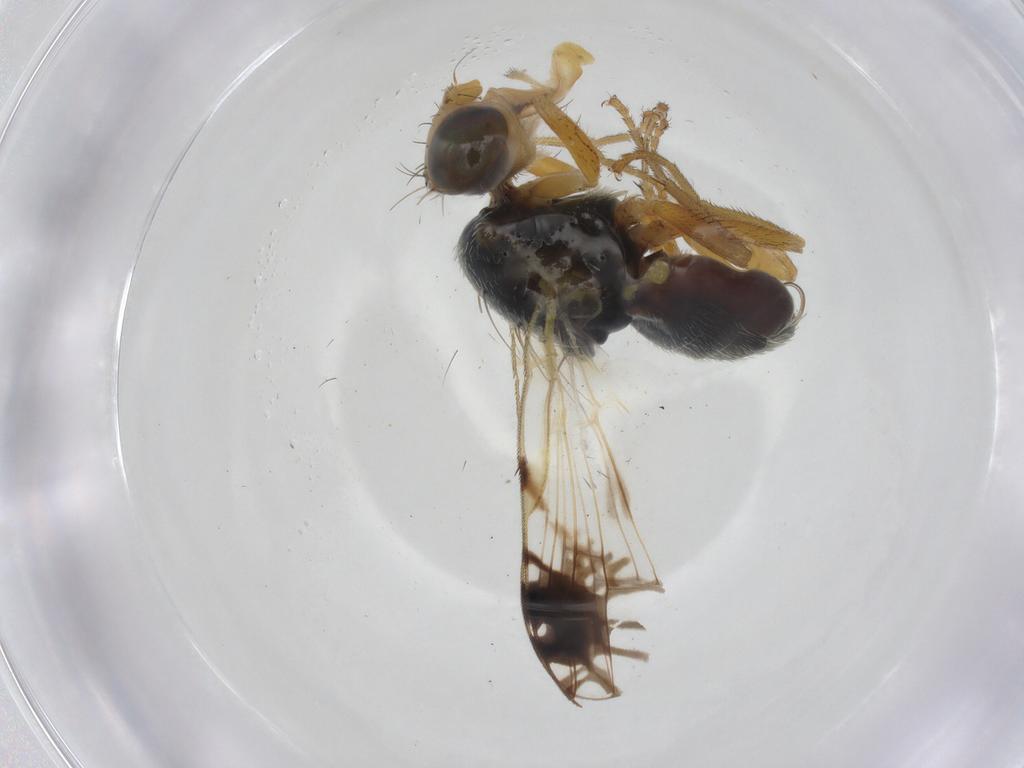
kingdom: Animalia
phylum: Arthropoda
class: Insecta
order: Diptera
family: Tephritidae
